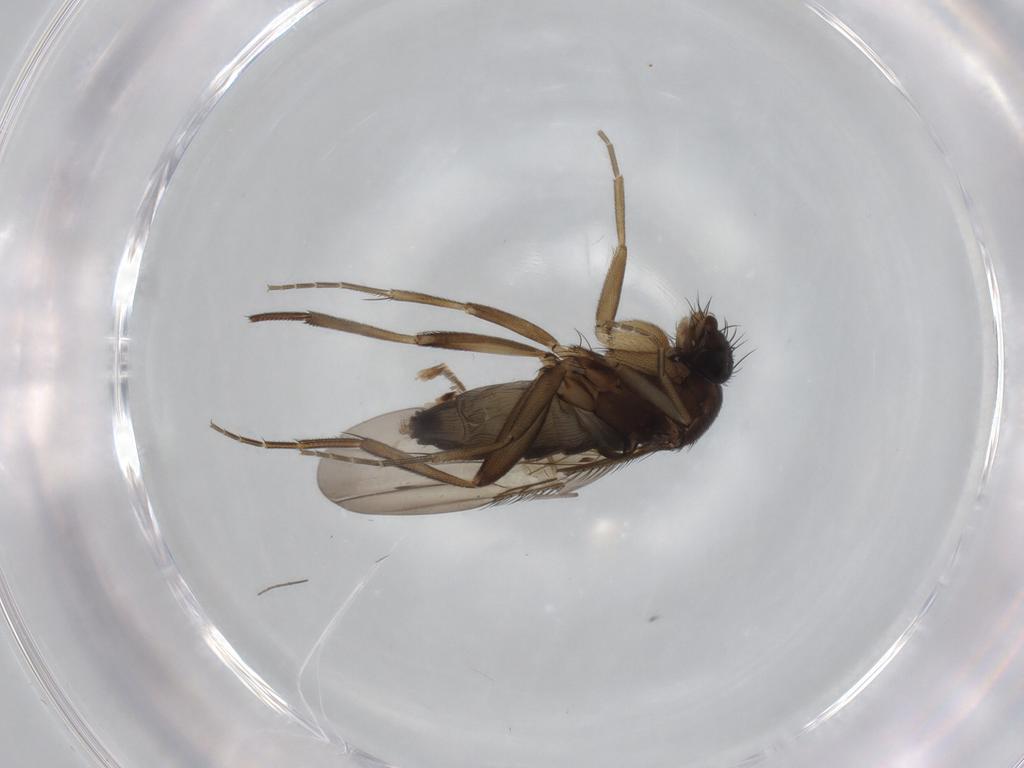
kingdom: Animalia
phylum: Arthropoda
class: Insecta
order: Diptera
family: Phoridae
